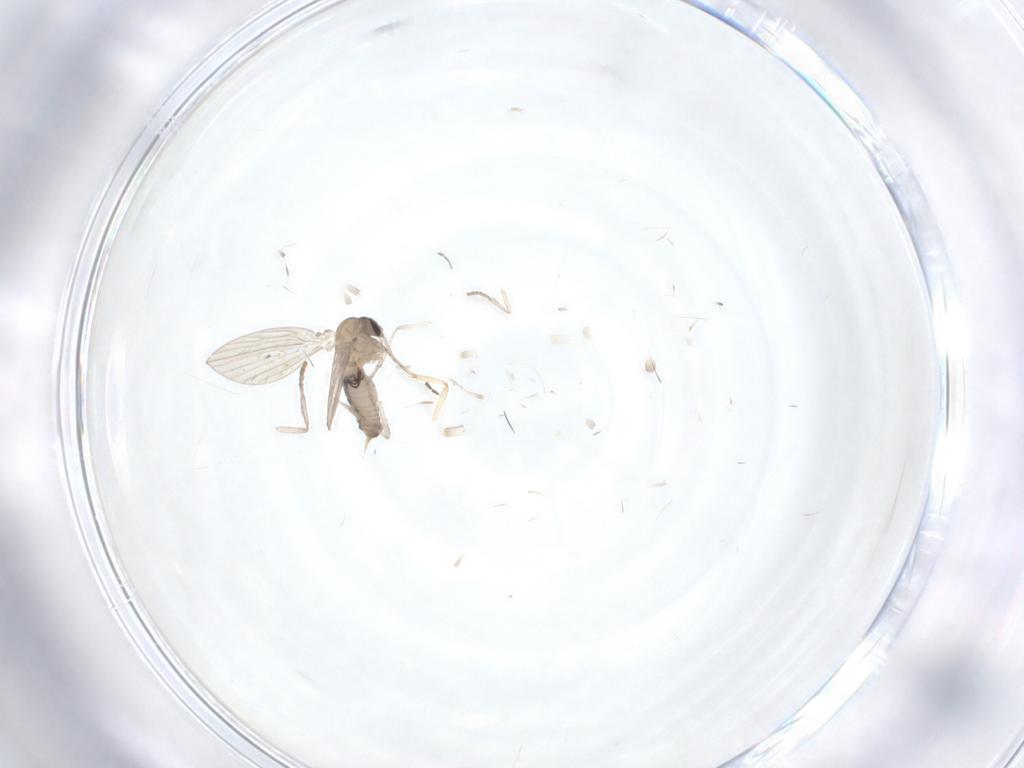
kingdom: Animalia
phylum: Arthropoda
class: Insecta
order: Diptera
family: Psychodidae
